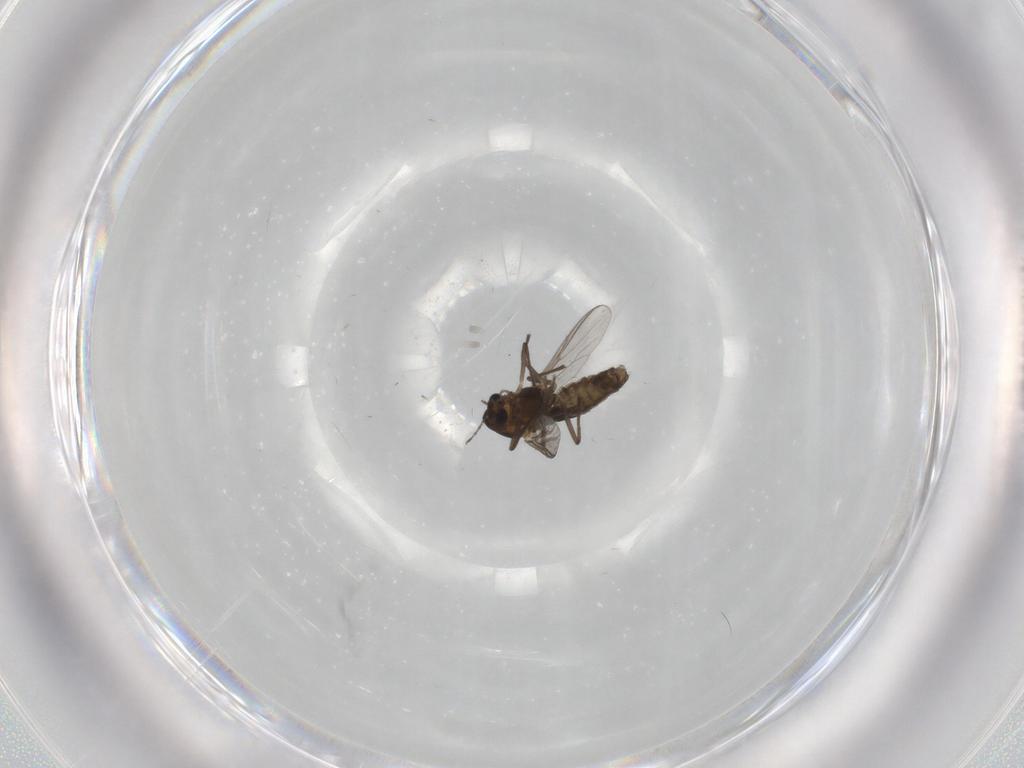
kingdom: Animalia
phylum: Arthropoda
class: Insecta
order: Diptera
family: Chironomidae
